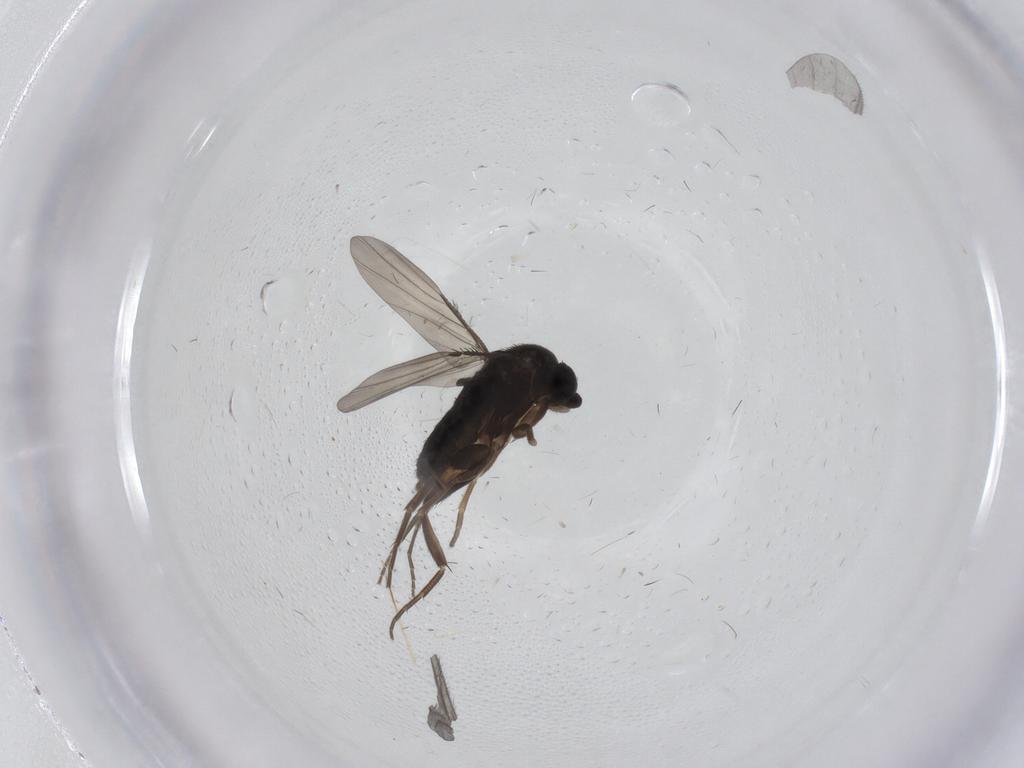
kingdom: Animalia
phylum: Arthropoda
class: Insecta
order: Diptera
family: Phoridae
